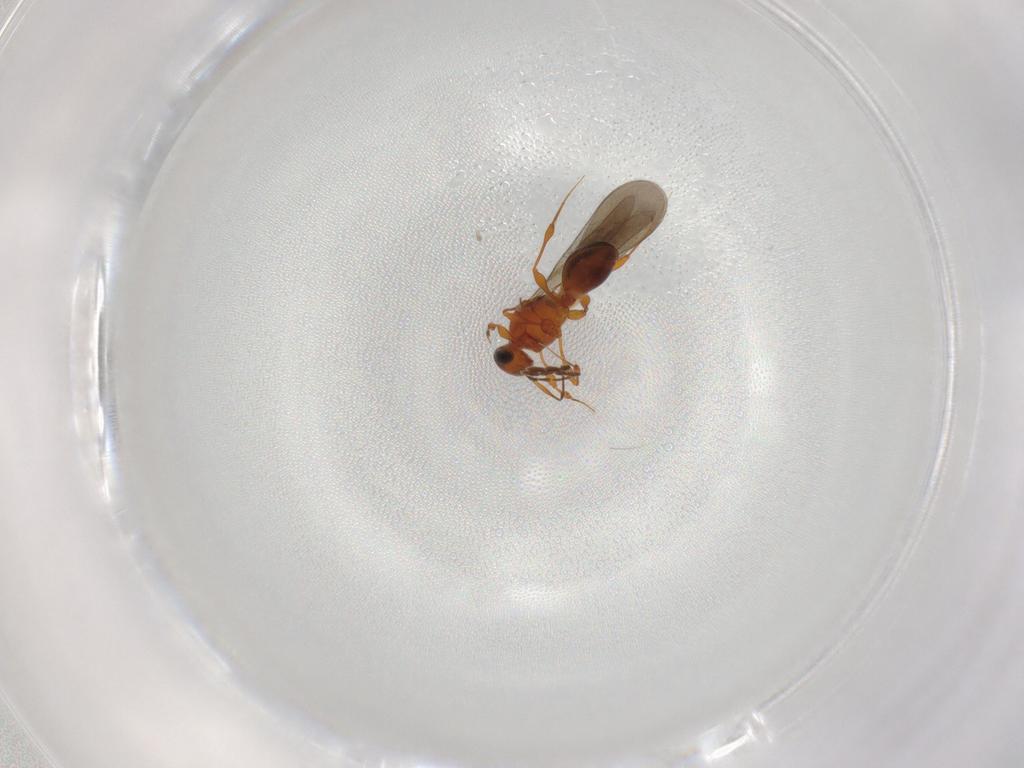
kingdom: Animalia
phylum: Arthropoda
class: Insecta
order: Hymenoptera
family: Platygastridae
